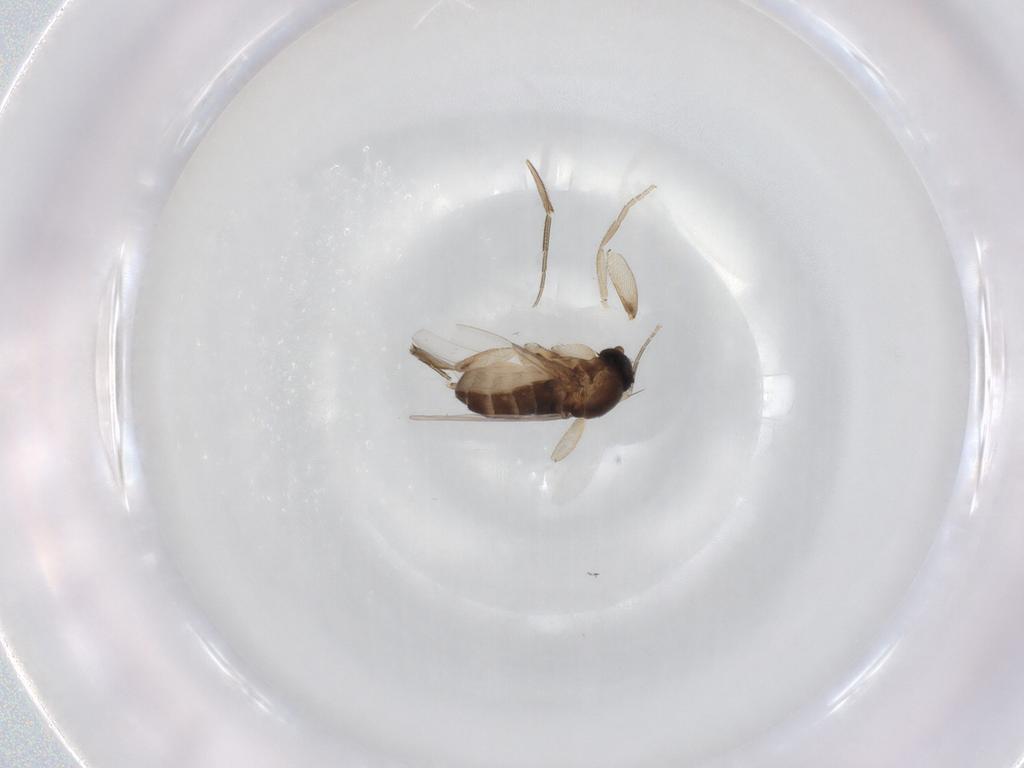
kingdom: Animalia
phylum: Arthropoda
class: Insecta
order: Diptera
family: Phoridae
